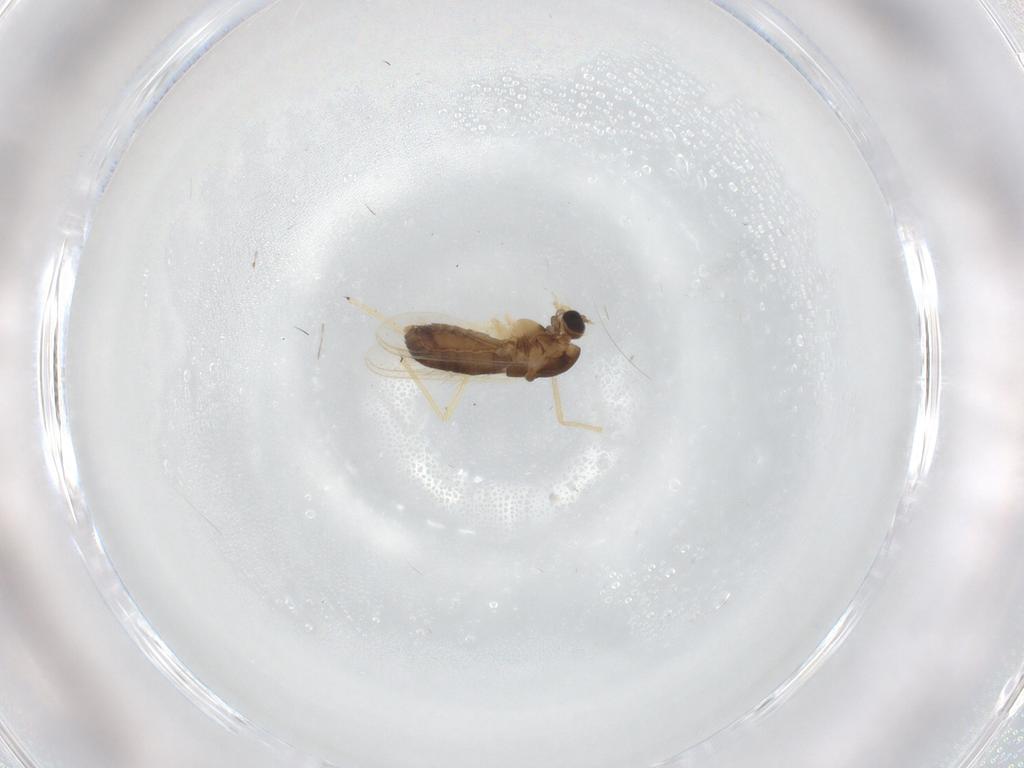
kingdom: Animalia
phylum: Arthropoda
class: Insecta
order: Diptera
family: Chironomidae
